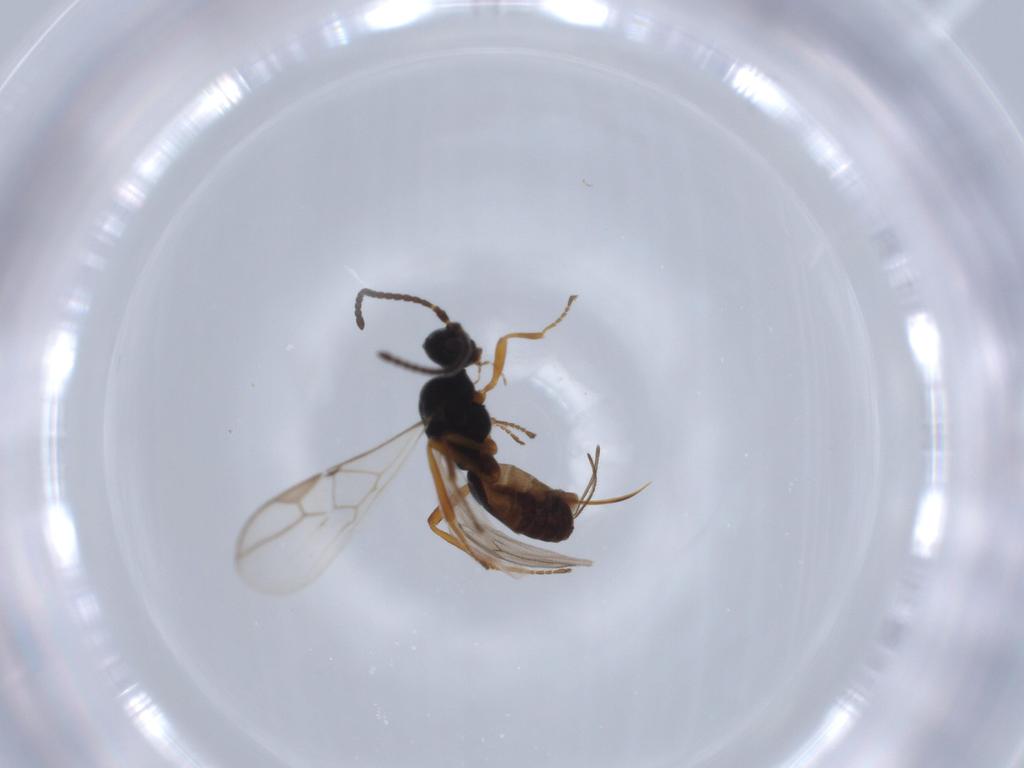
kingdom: Animalia
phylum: Arthropoda
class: Insecta
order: Hymenoptera
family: Braconidae
